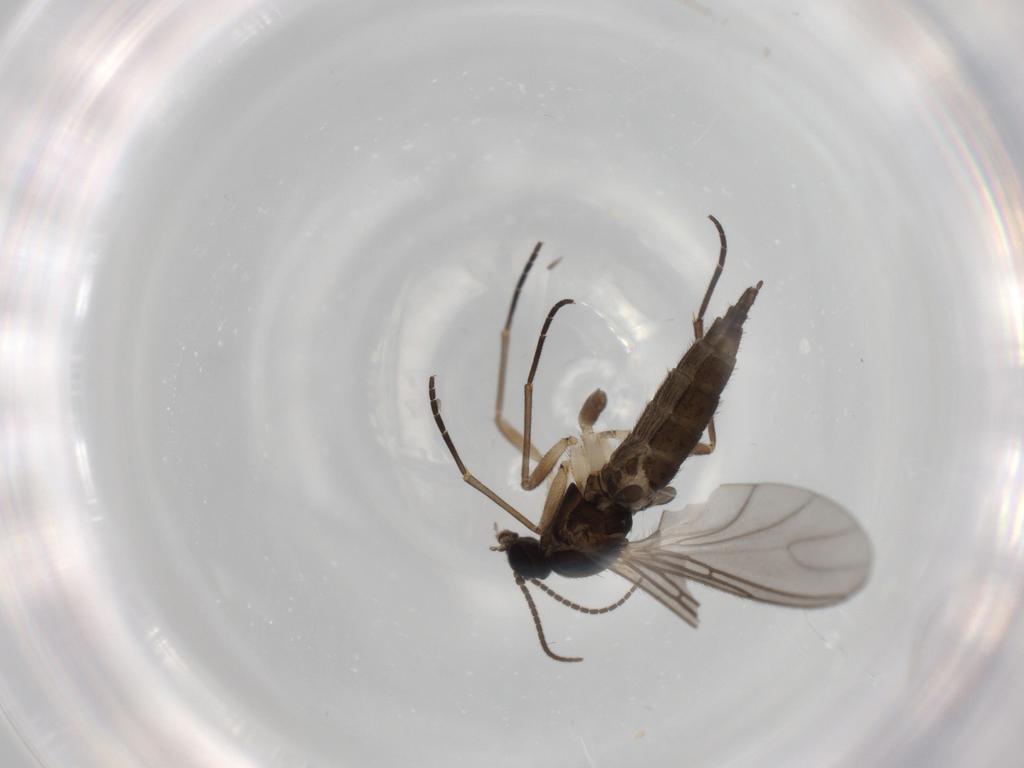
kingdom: Animalia
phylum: Arthropoda
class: Insecta
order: Diptera
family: Sciaridae
